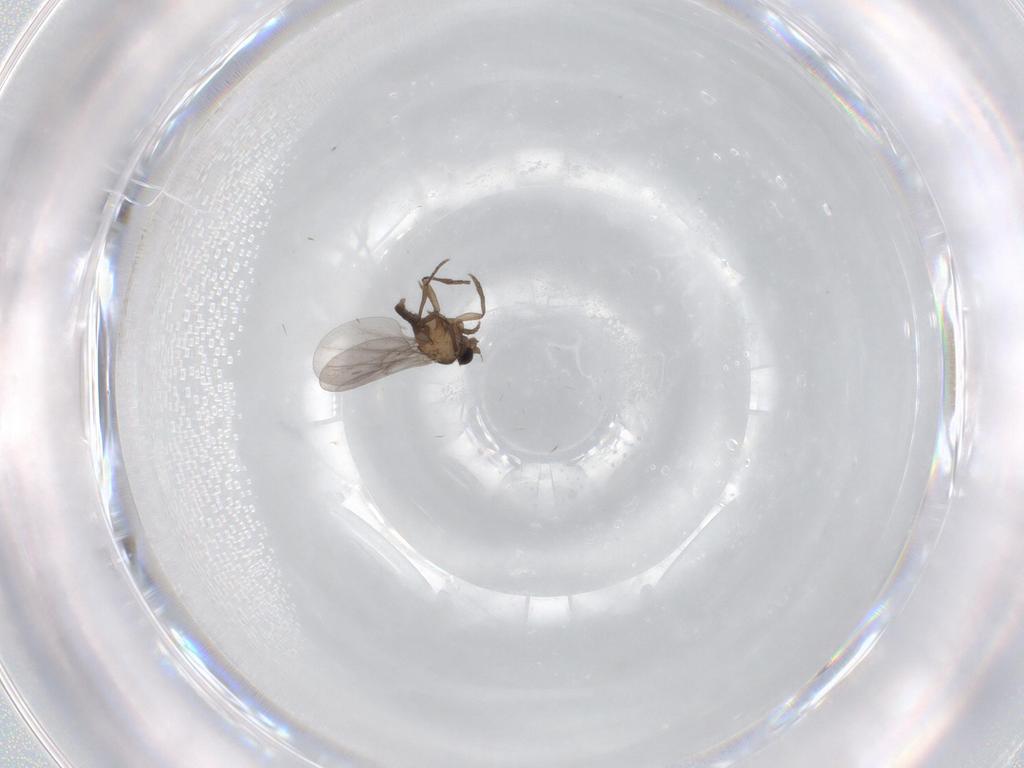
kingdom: Animalia
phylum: Arthropoda
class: Insecta
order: Diptera
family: Phoridae
